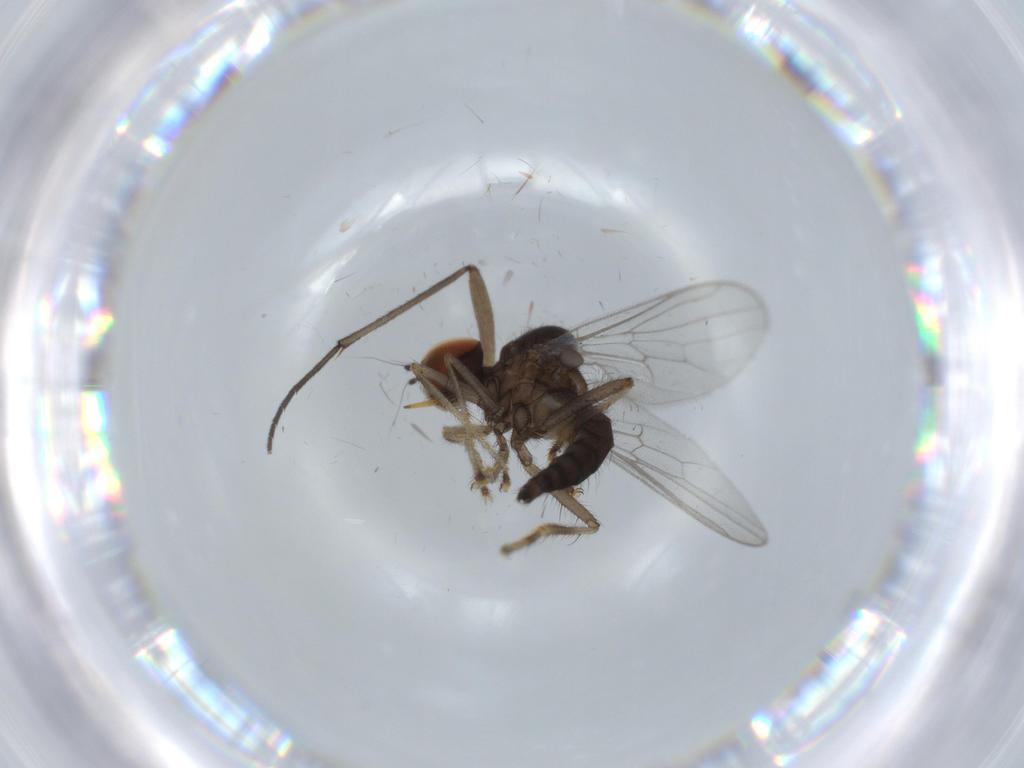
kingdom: Animalia
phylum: Arthropoda
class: Insecta
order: Diptera
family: Hybotidae
